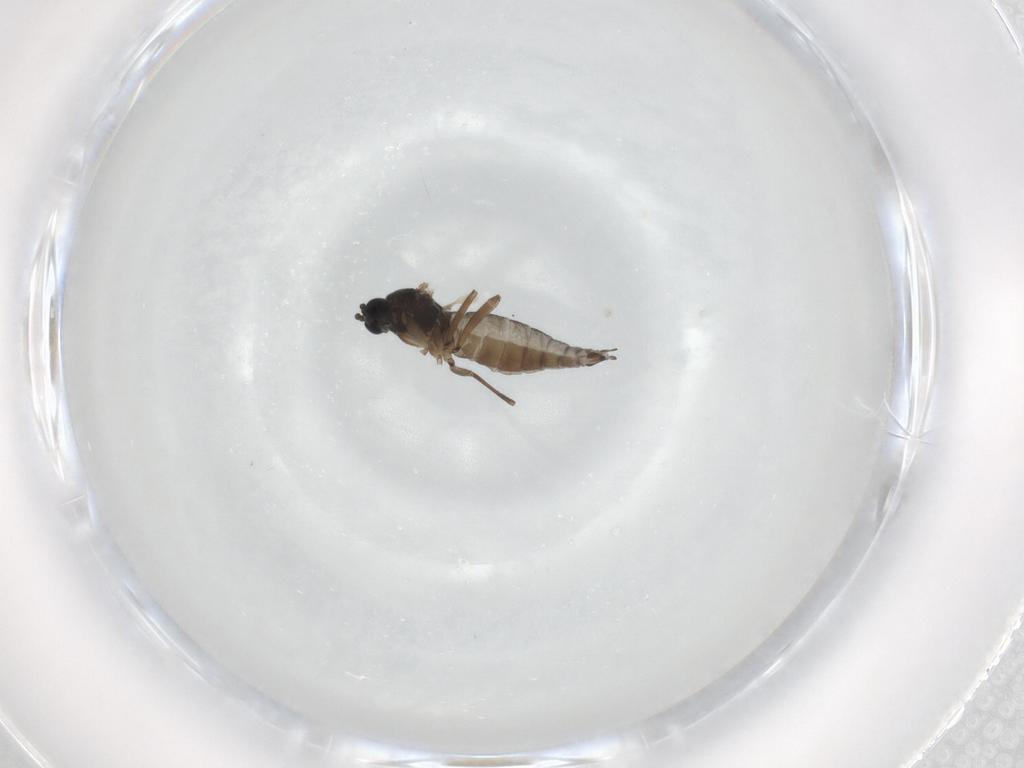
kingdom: Animalia
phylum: Arthropoda
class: Insecta
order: Diptera
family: Sciaridae
